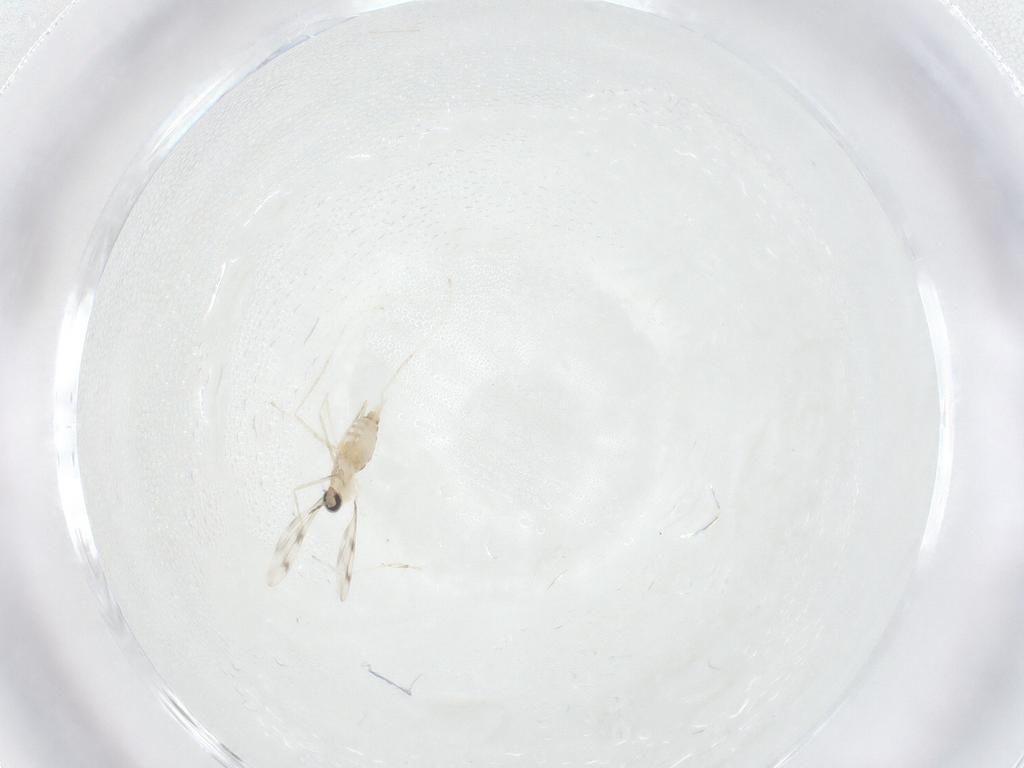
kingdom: Animalia
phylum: Arthropoda
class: Insecta
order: Diptera
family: Cecidomyiidae
